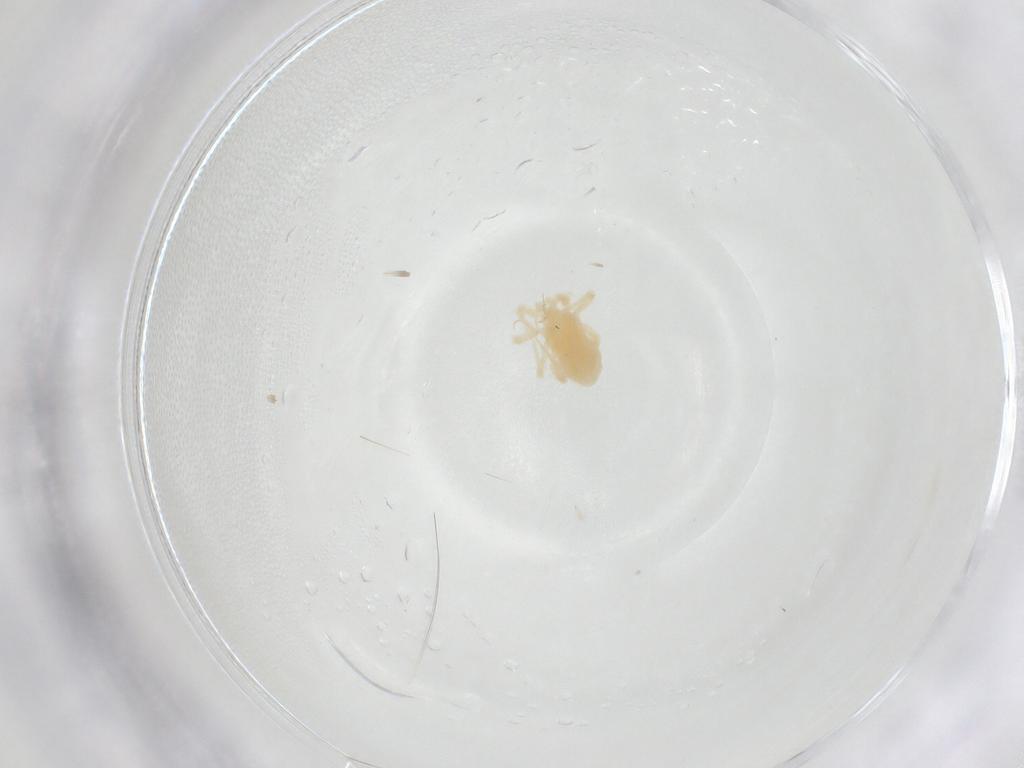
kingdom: Animalia
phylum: Arthropoda
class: Arachnida
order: Trombidiformes
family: Anystidae
